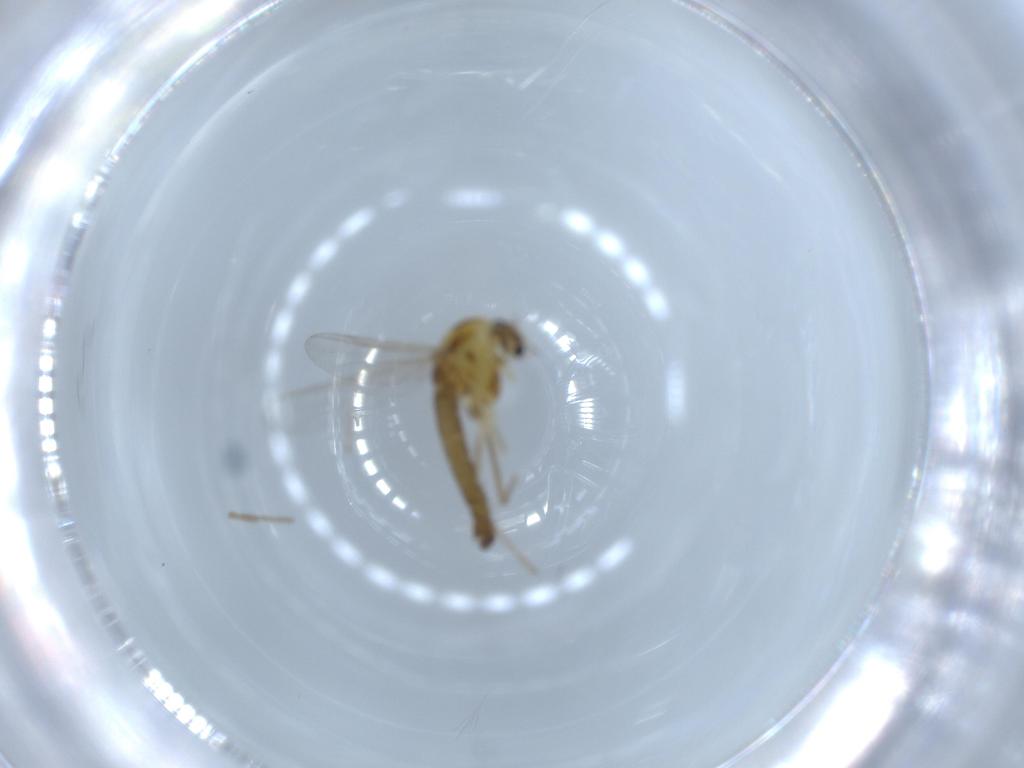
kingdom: Animalia
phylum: Arthropoda
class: Insecta
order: Diptera
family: Chironomidae
